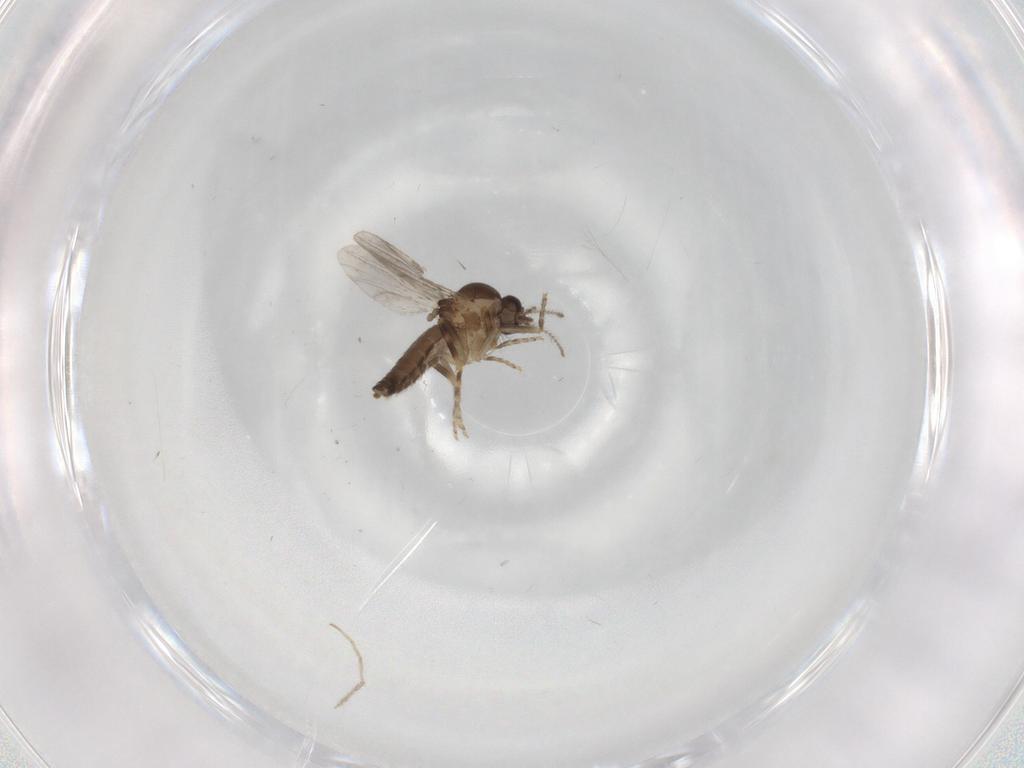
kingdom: Animalia
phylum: Arthropoda
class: Insecta
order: Diptera
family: Ceratopogonidae
